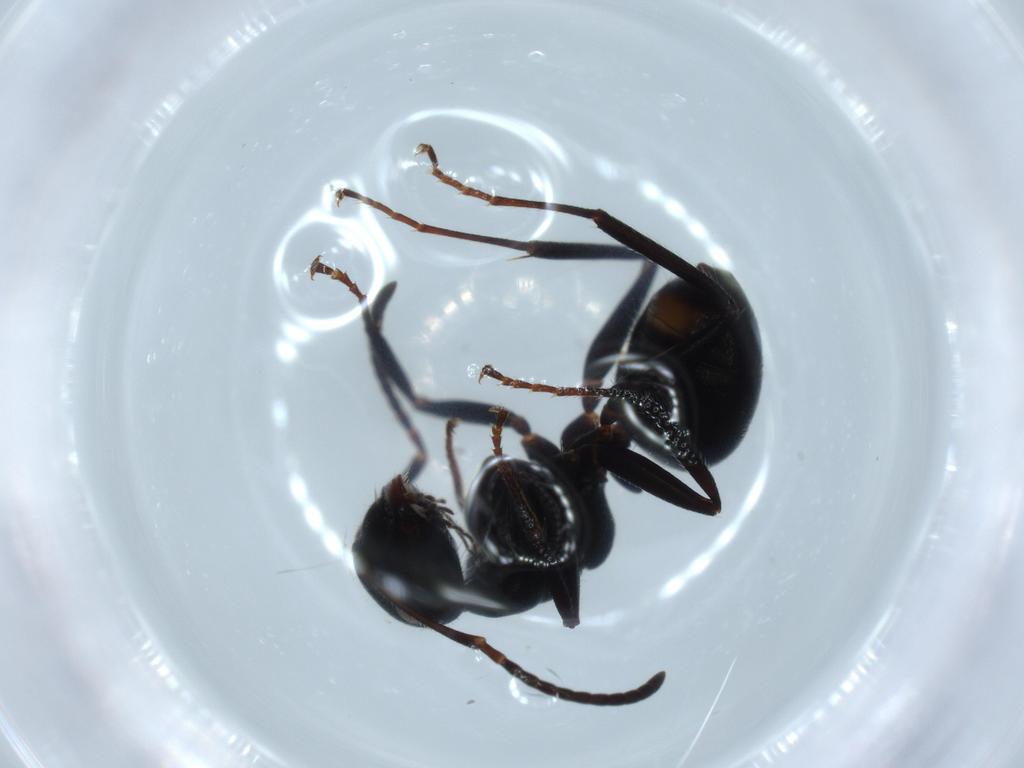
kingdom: Animalia
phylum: Arthropoda
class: Insecta
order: Hymenoptera
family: Formicidae
